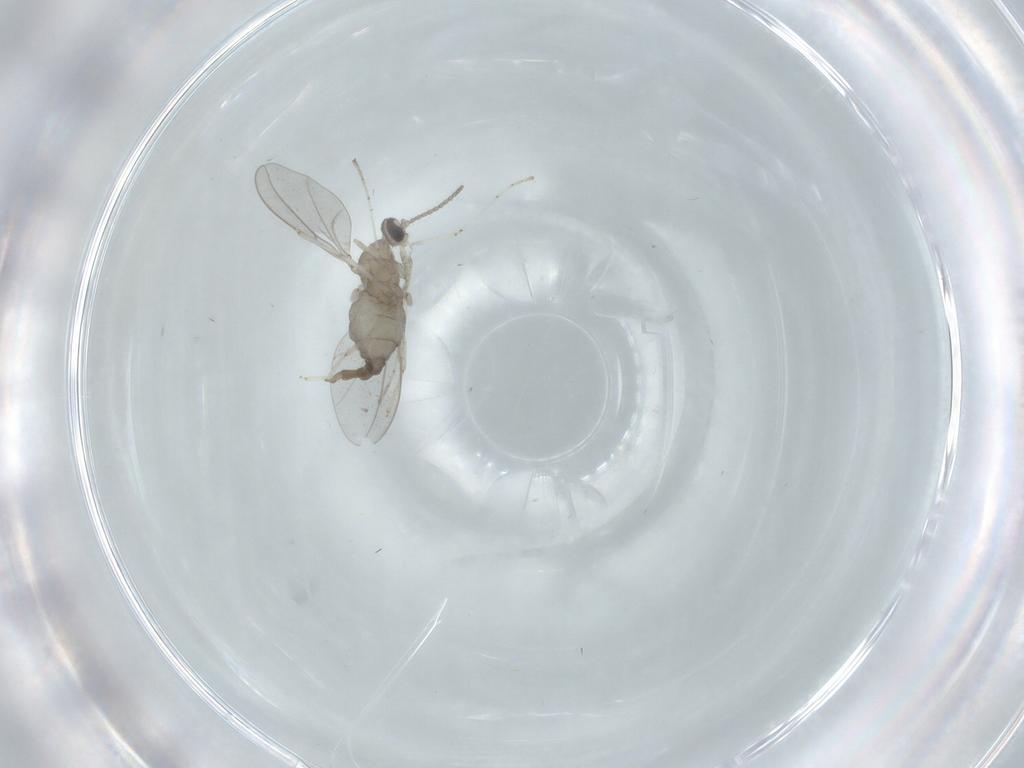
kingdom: Animalia
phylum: Arthropoda
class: Insecta
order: Diptera
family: Cecidomyiidae
